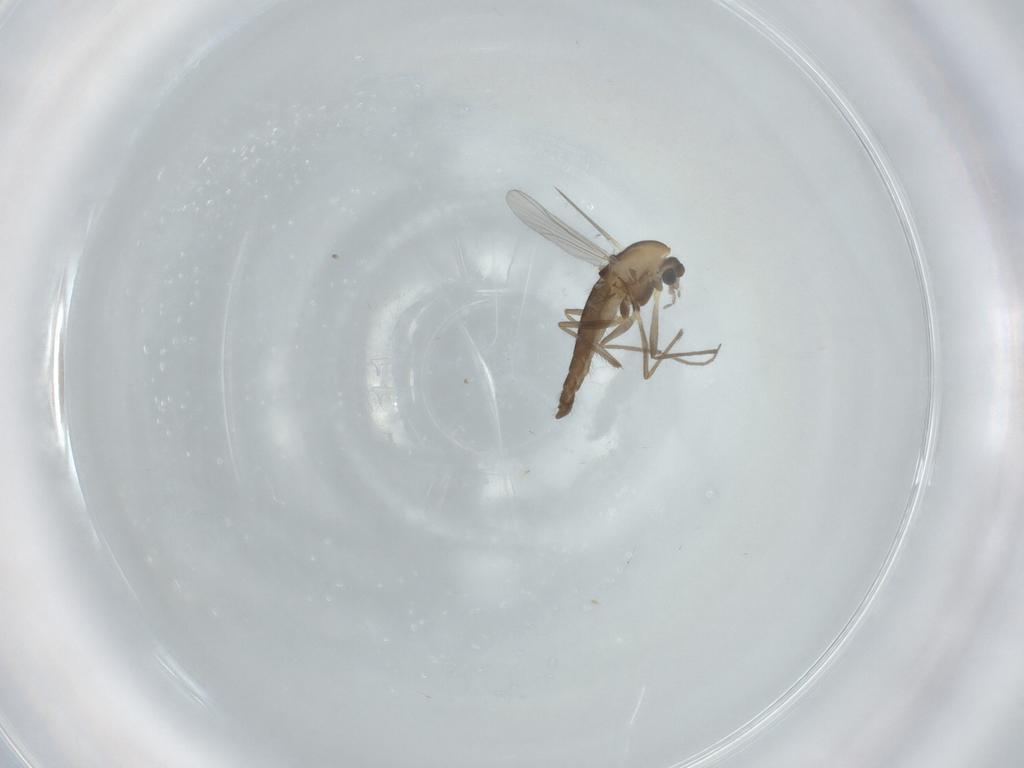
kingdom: Animalia
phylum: Arthropoda
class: Insecta
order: Diptera
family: Chironomidae
